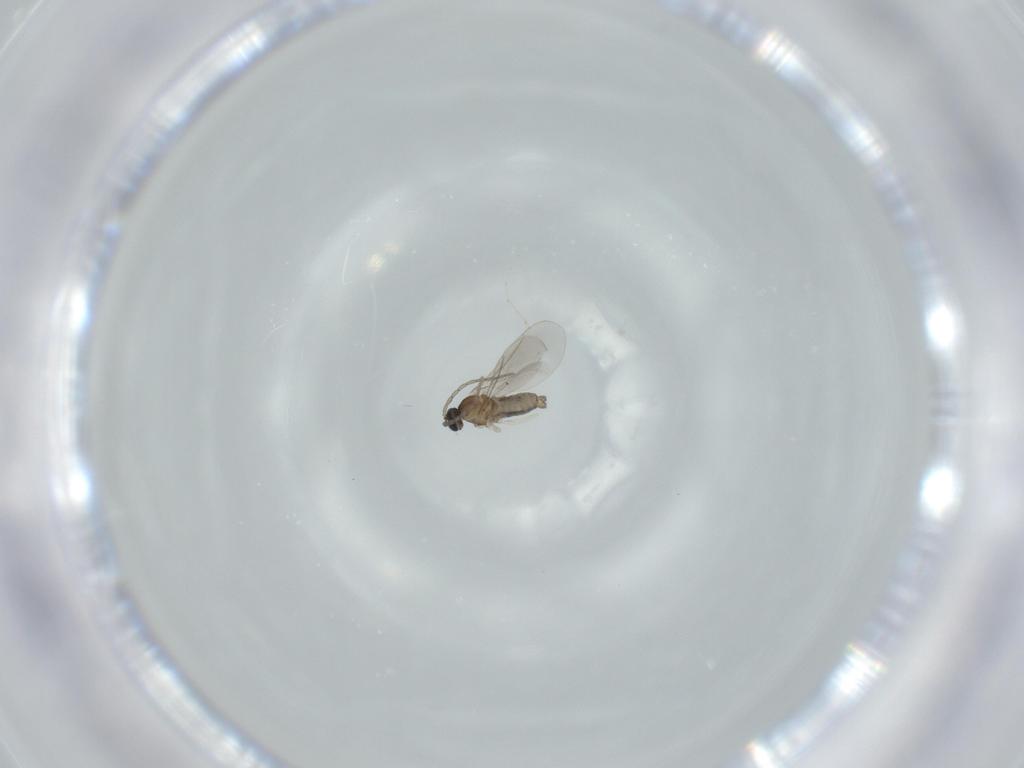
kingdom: Animalia
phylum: Arthropoda
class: Insecta
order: Diptera
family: Cecidomyiidae
